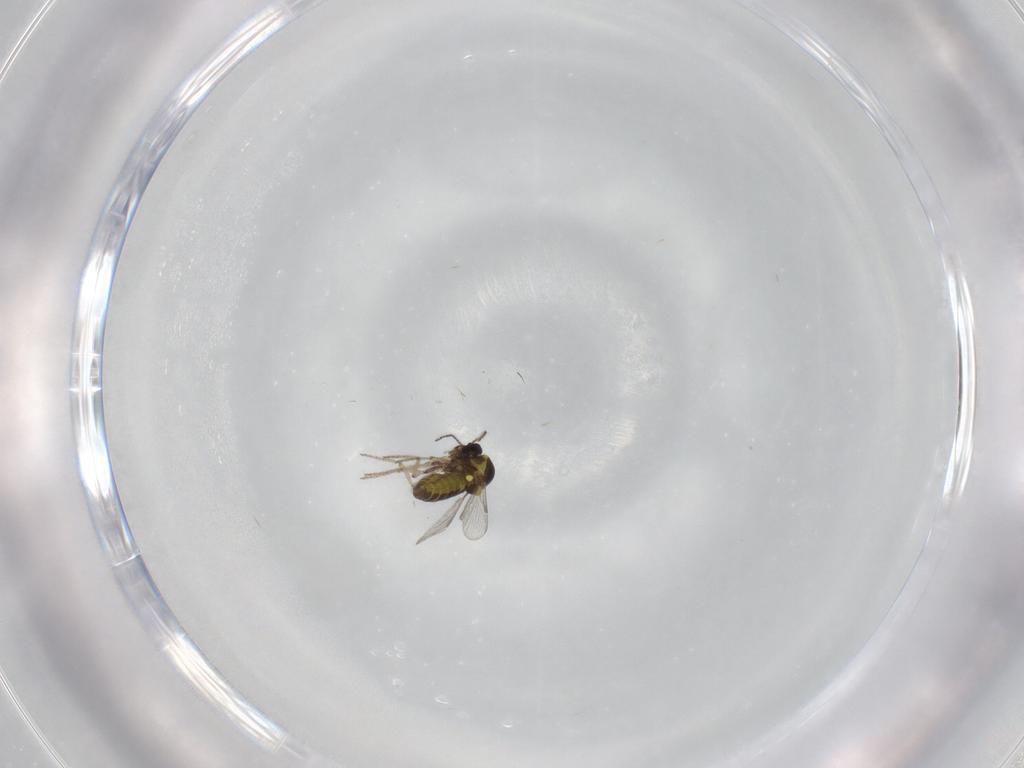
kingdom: Animalia
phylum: Arthropoda
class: Insecta
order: Diptera
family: Ceratopogonidae
